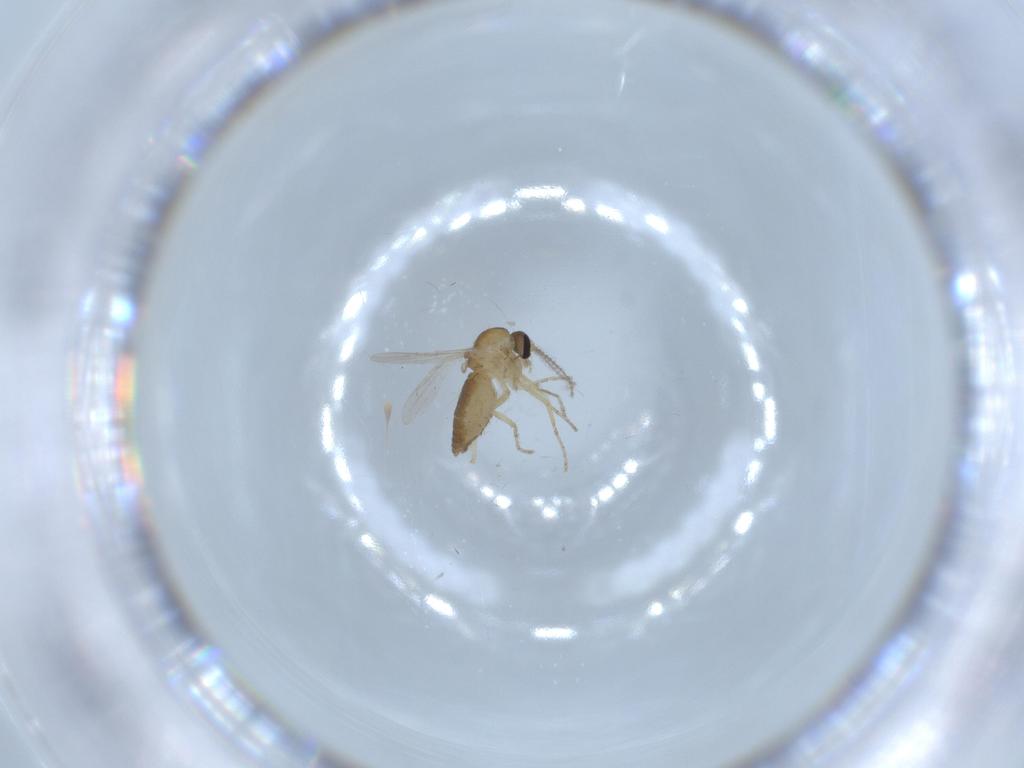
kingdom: Animalia
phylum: Arthropoda
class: Insecta
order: Diptera
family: Ceratopogonidae
